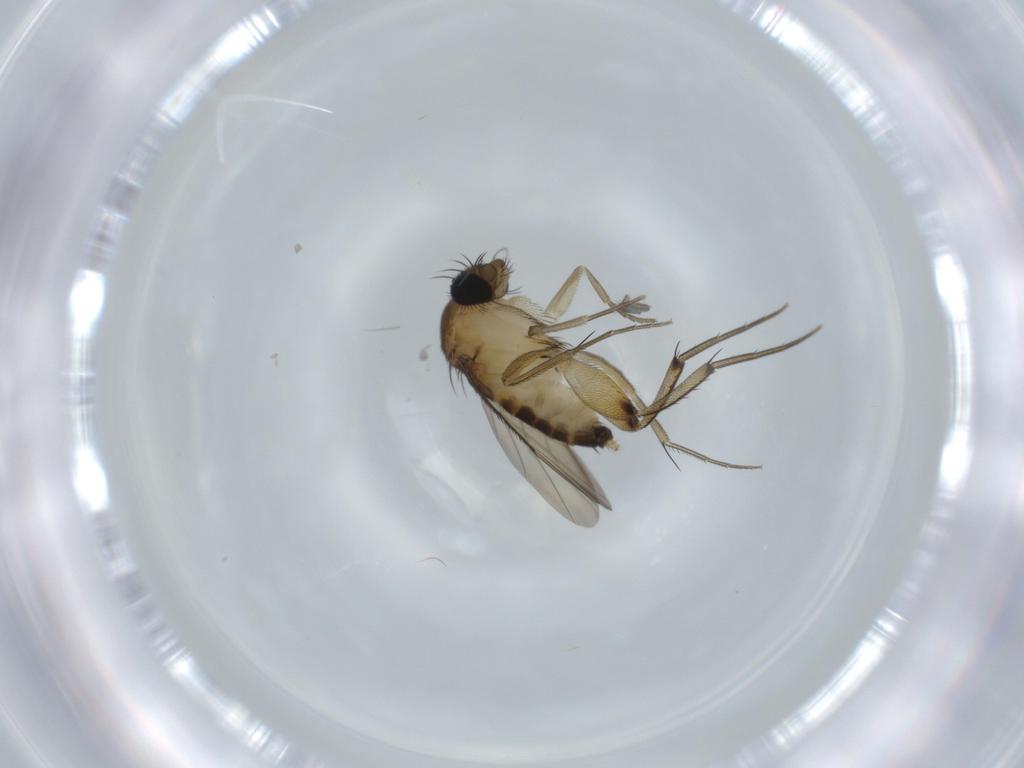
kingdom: Animalia
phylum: Arthropoda
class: Insecta
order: Diptera
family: Phoridae
